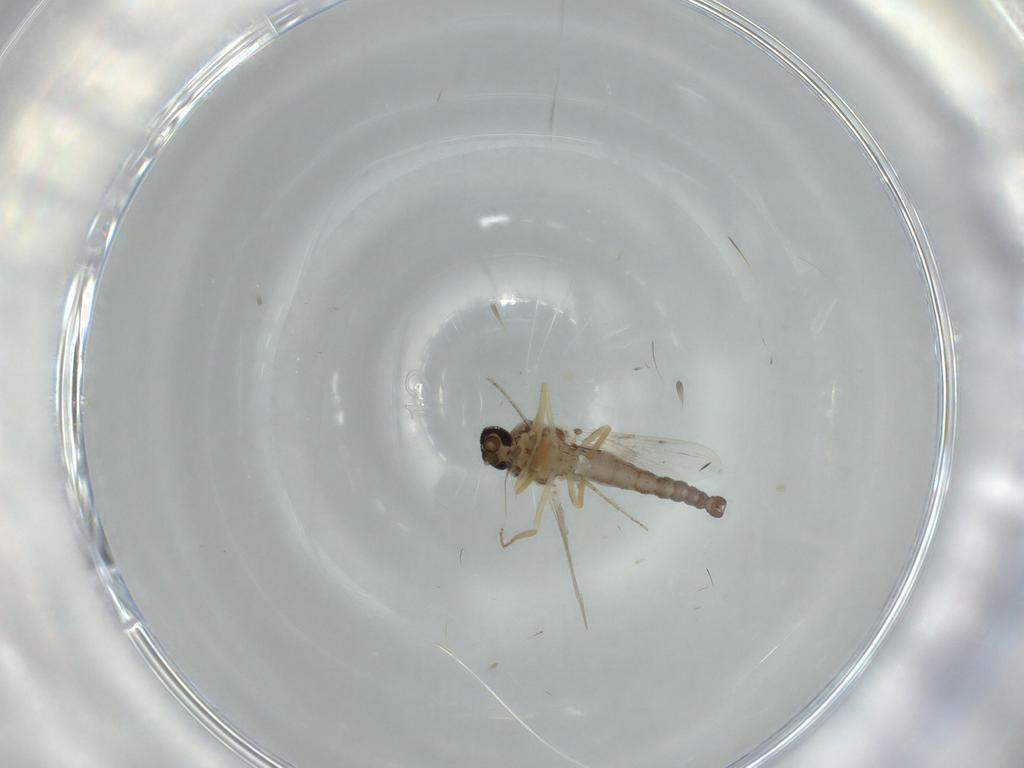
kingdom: Animalia
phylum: Arthropoda
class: Insecta
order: Diptera
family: Ceratopogonidae
